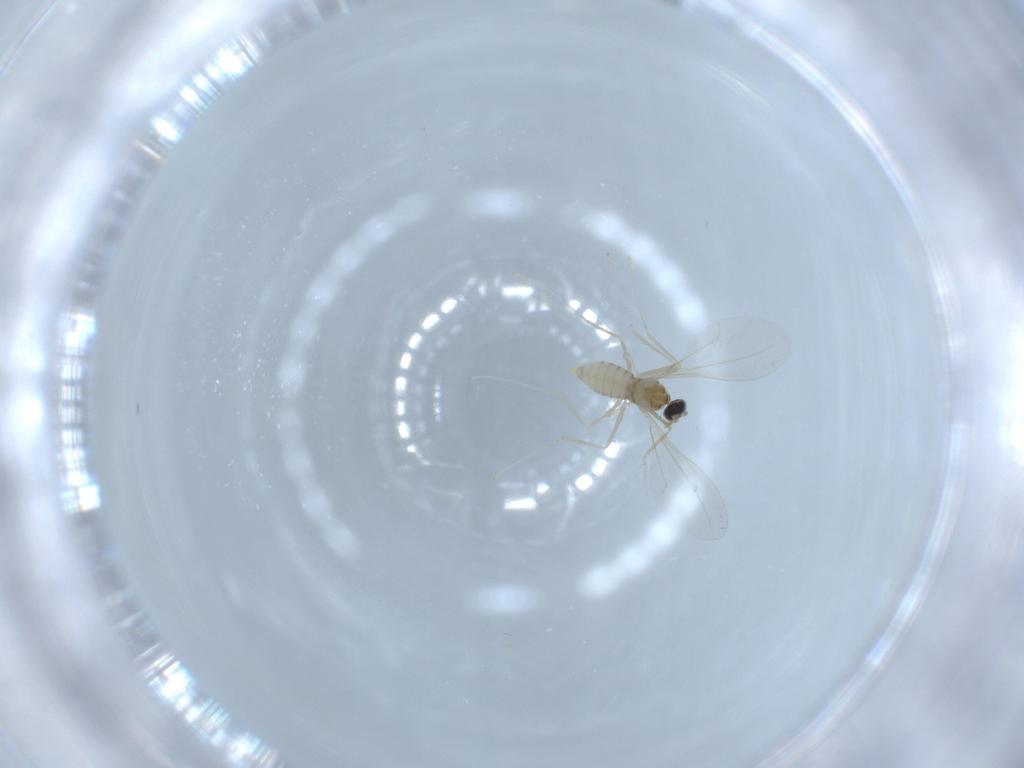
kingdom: Animalia
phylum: Arthropoda
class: Insecta
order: Diptera
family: Cecidomyiidae
